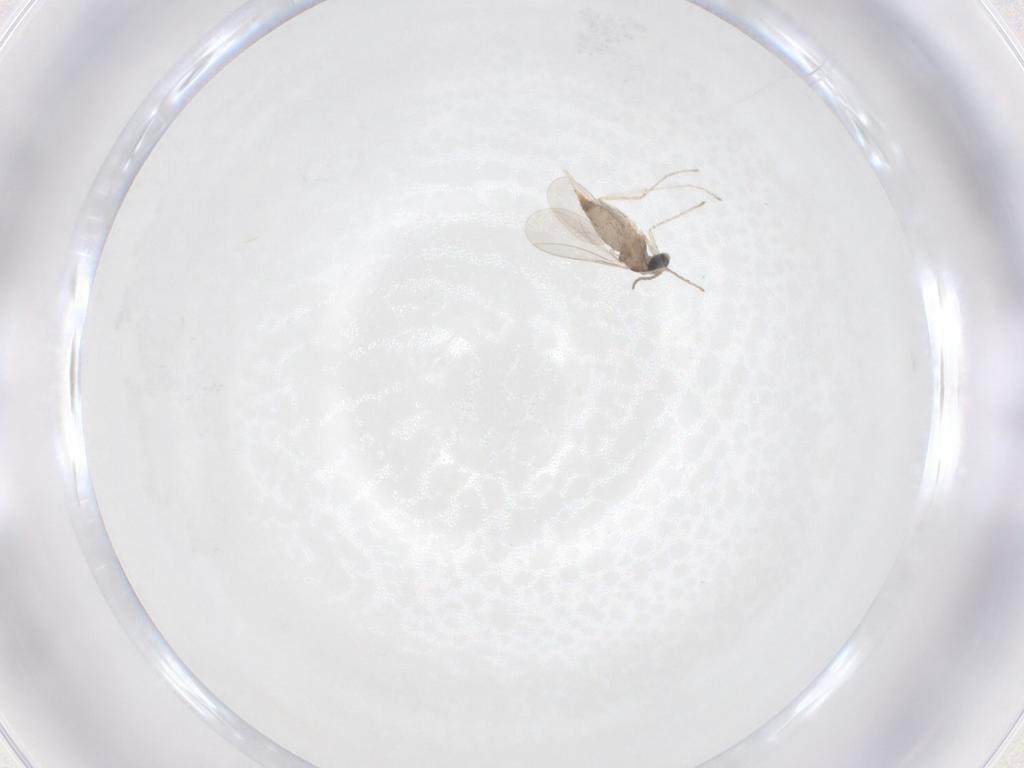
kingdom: Animalia
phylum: Arthropoda
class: Insecta
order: Diptera
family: Cecidomyiidae
